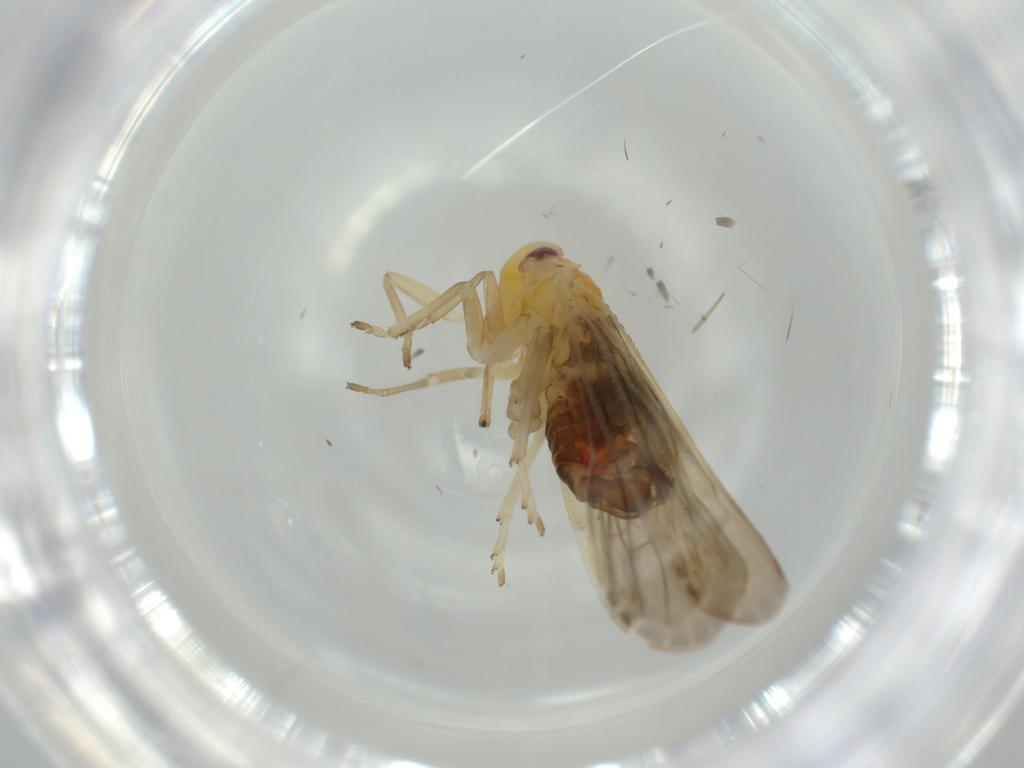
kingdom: Animalia
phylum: Arthropoda
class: Insecta
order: Hemiptera
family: Derbidae
